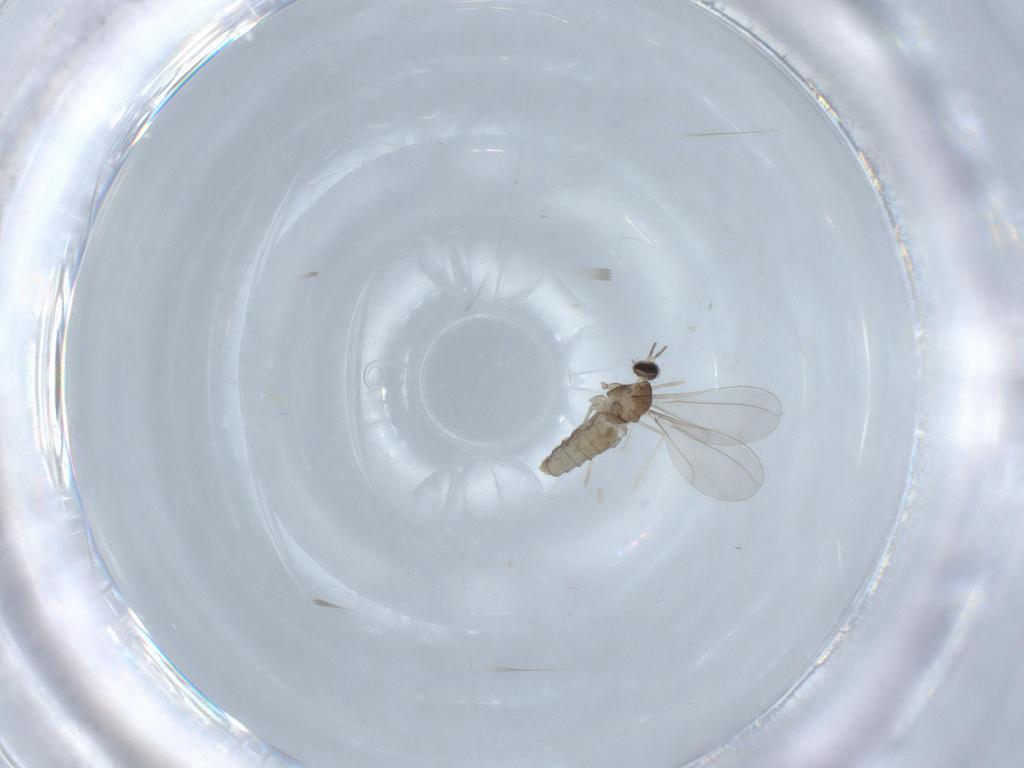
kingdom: Animalia
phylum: Arthropoda
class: Insecta
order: Diptera
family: Cecidomyiidae
